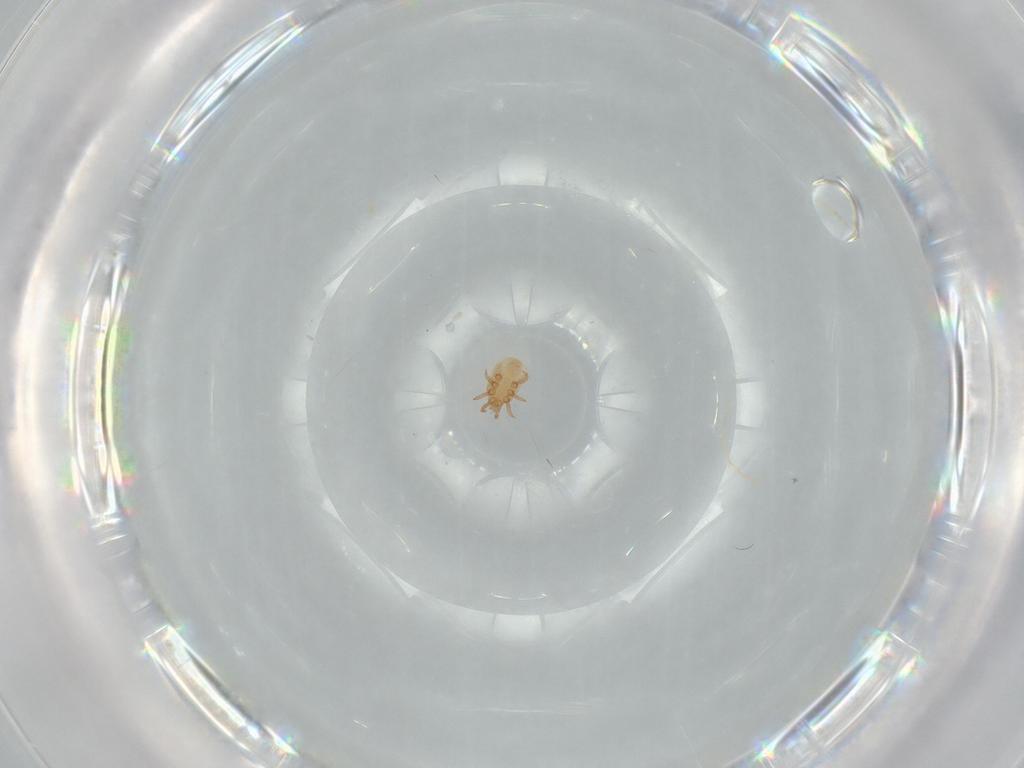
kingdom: Animalia
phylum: Arthropoda
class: Arachnida
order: Mesostigmata
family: Dinychidae
